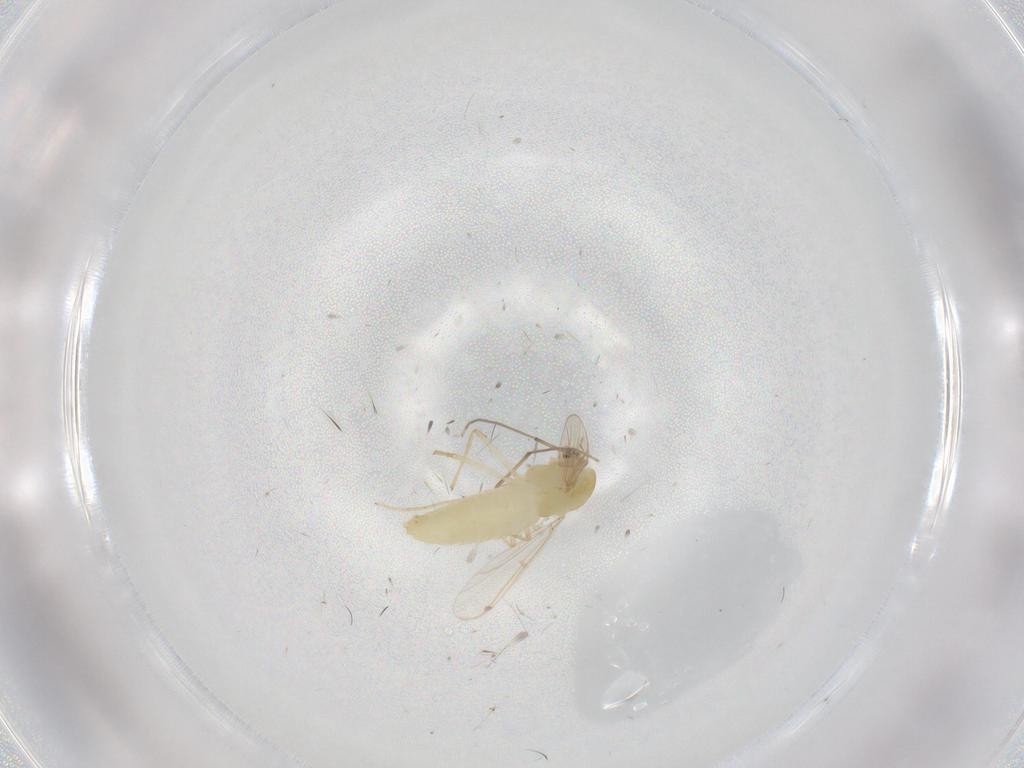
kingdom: Animalia
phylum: Arthropoda
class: Insecta
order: Diptera
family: Chironomidae
